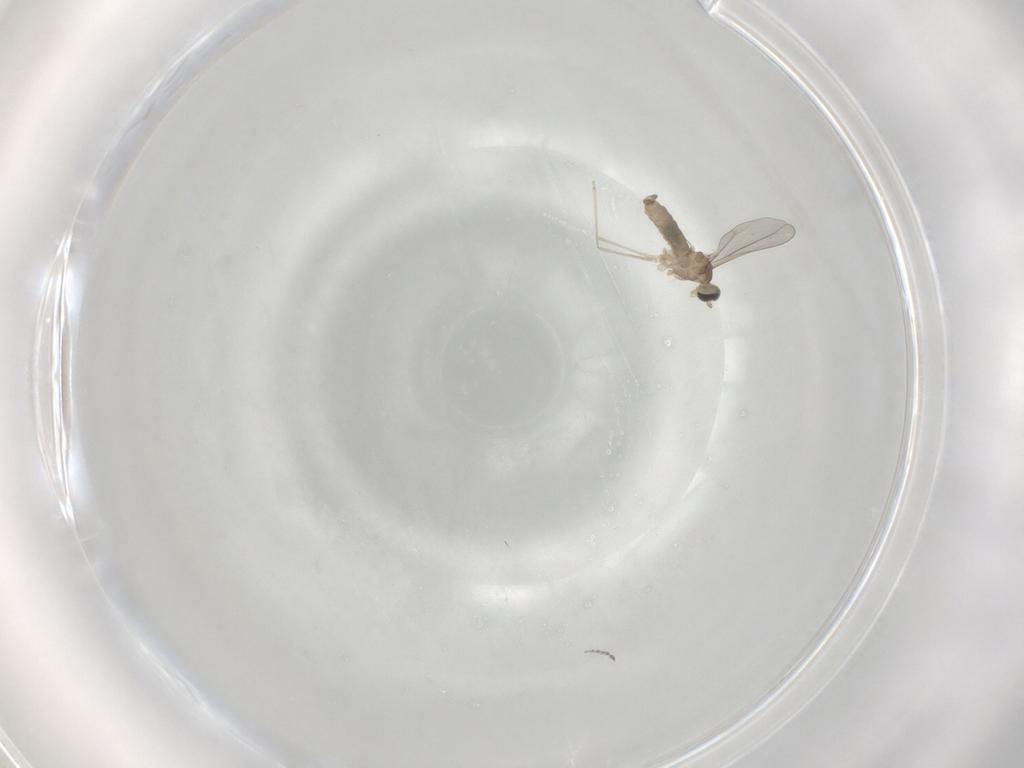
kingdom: Animalia
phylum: Arthropoda
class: Insecta
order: Diptera
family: Cecidomyiidae
